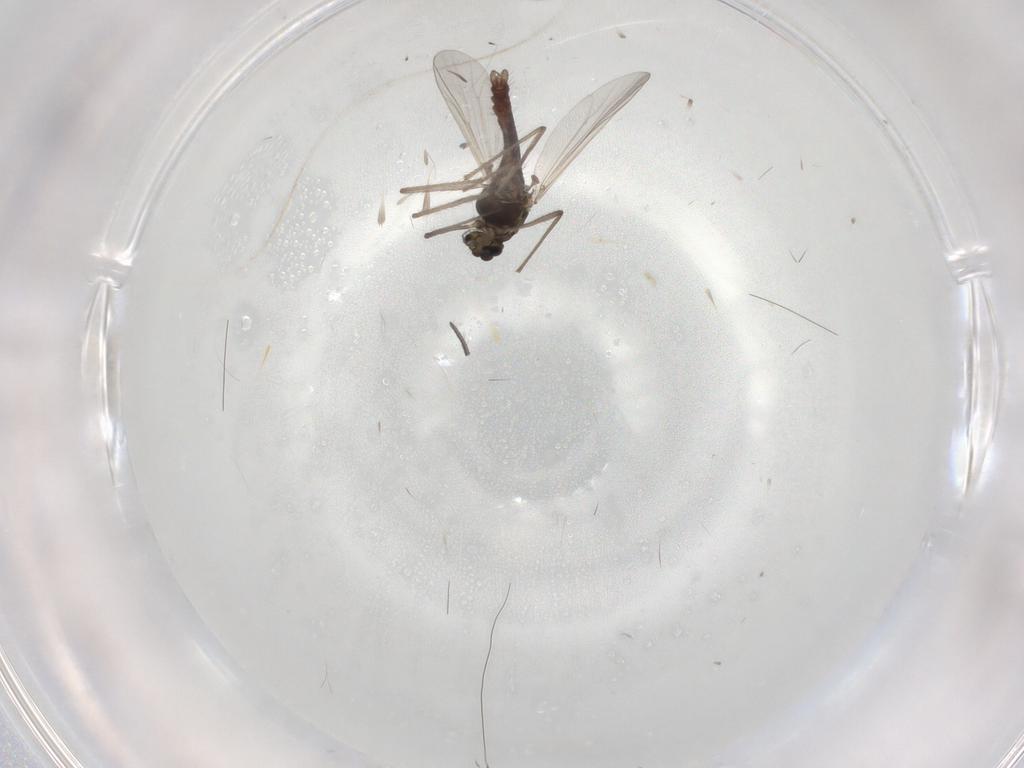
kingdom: Animalia
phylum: Arthropoda
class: Insecta
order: Diptera
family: Chironomidae
